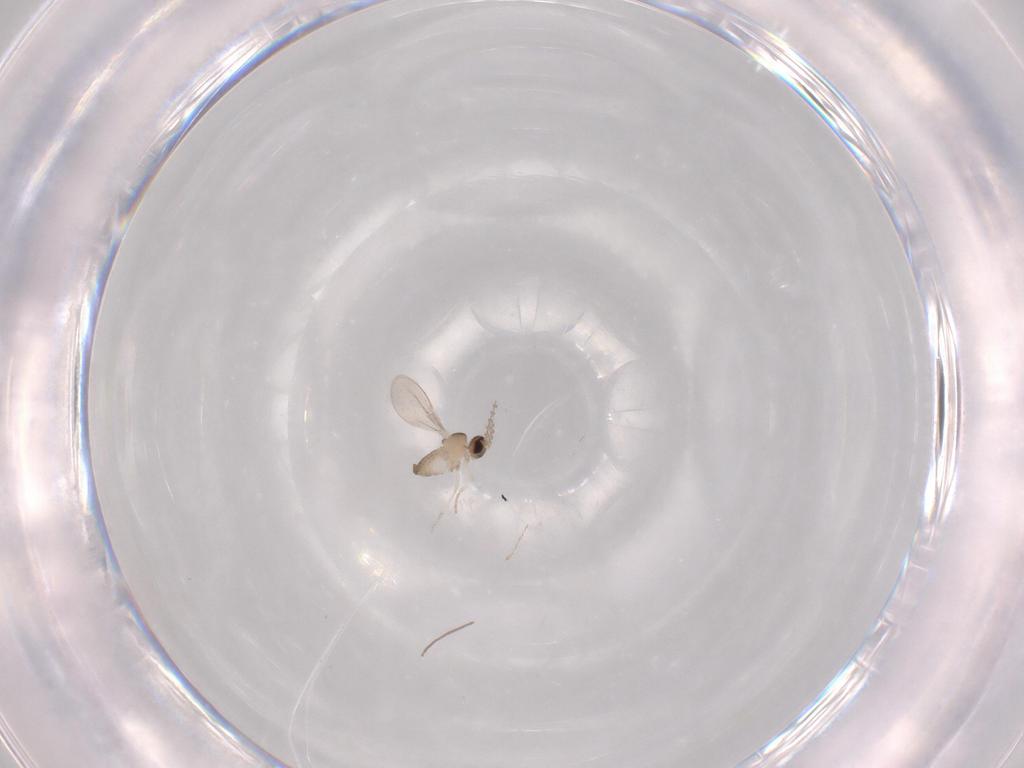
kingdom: Animalia
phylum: Arthropoda
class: Insecta
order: Diptera
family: Cecidomyiidae
